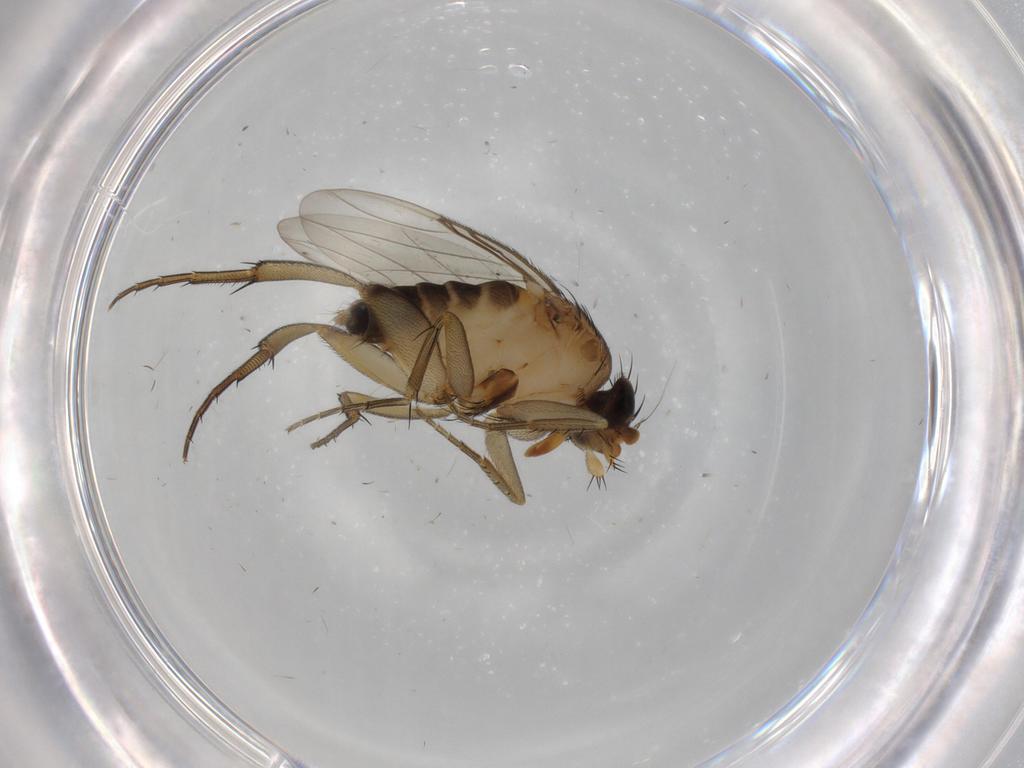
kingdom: Animalia
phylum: Arthropoda
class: Insecta
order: Diptera
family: Phoridae
